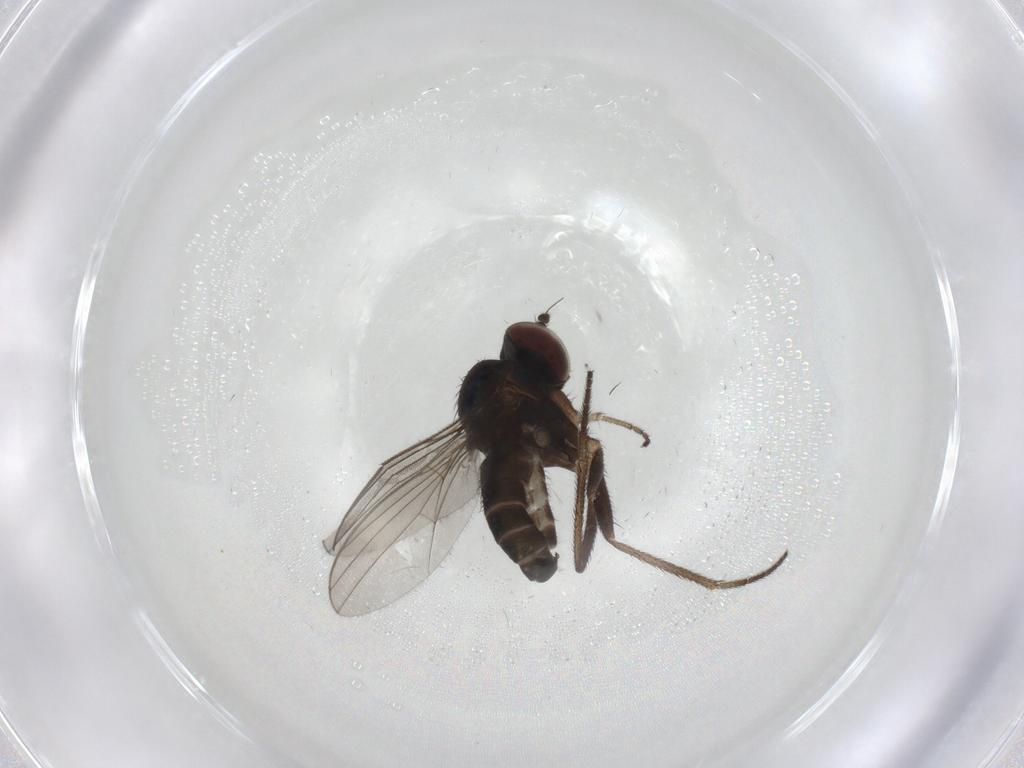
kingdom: Animalia
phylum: Arthropoda
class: Insecta
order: Diptera
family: Dolichopodidae
